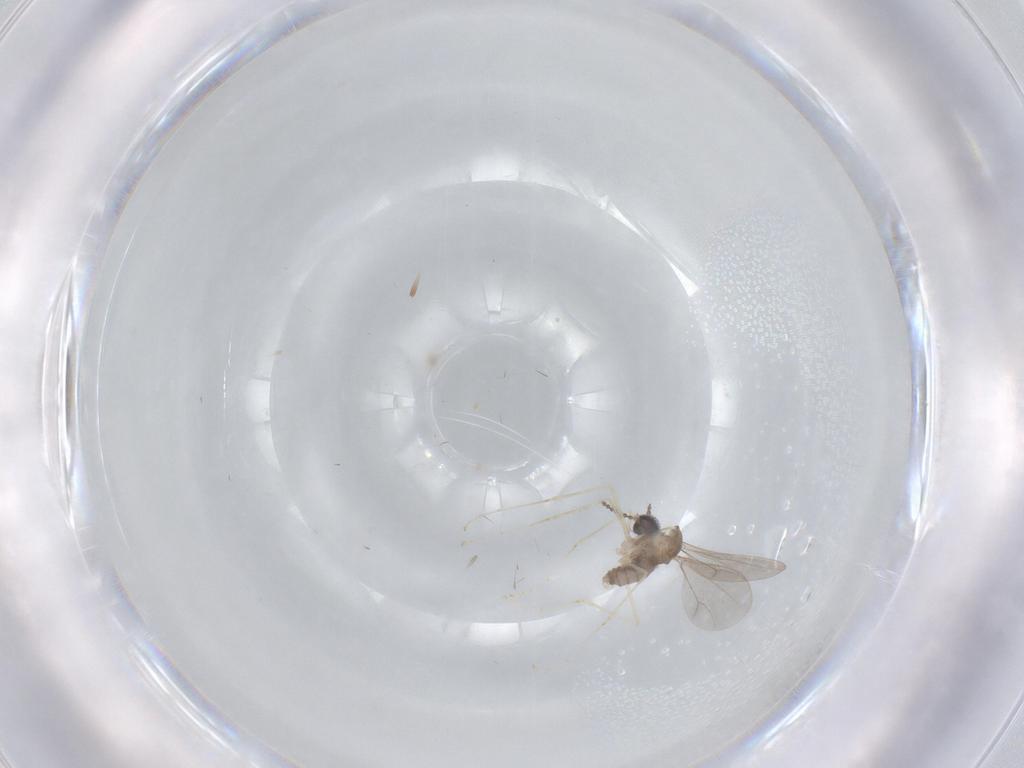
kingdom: Animalia
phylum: Arthropoda
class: Insecta
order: Diptera
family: Cecidomyiidae
